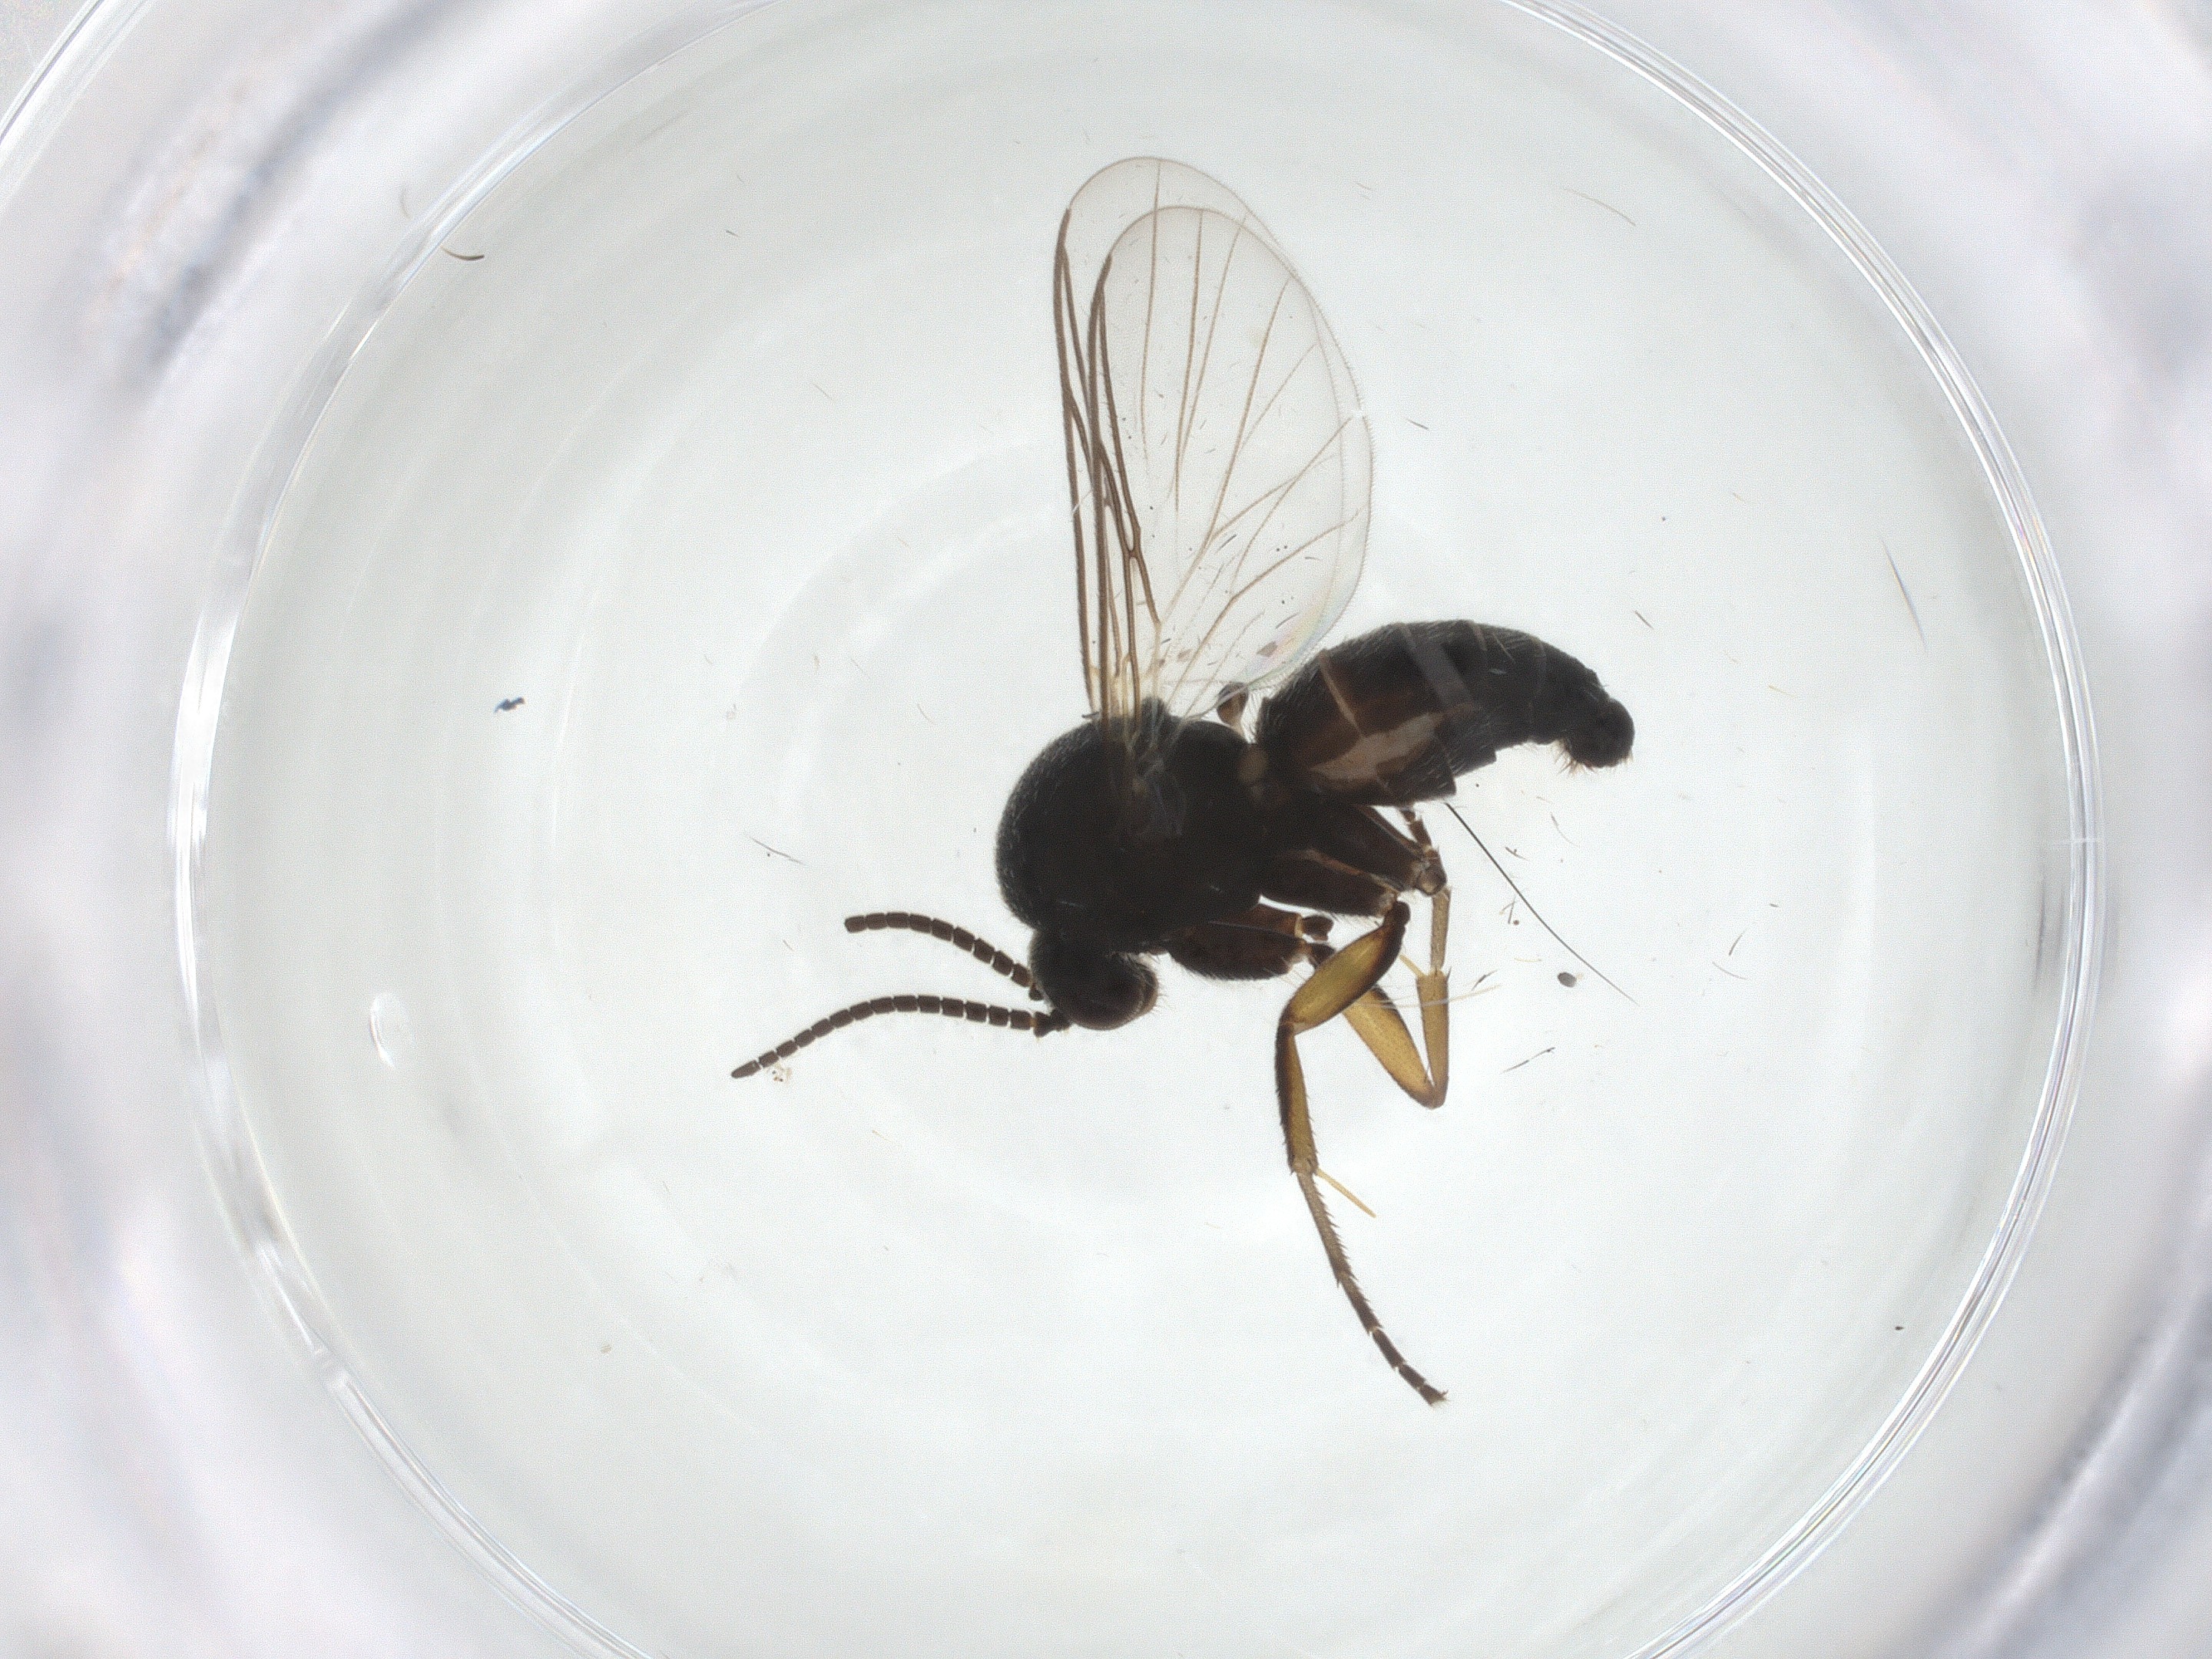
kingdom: Animalia
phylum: Arthropoda
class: Insecta
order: Diptera
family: Mycetophilidae
